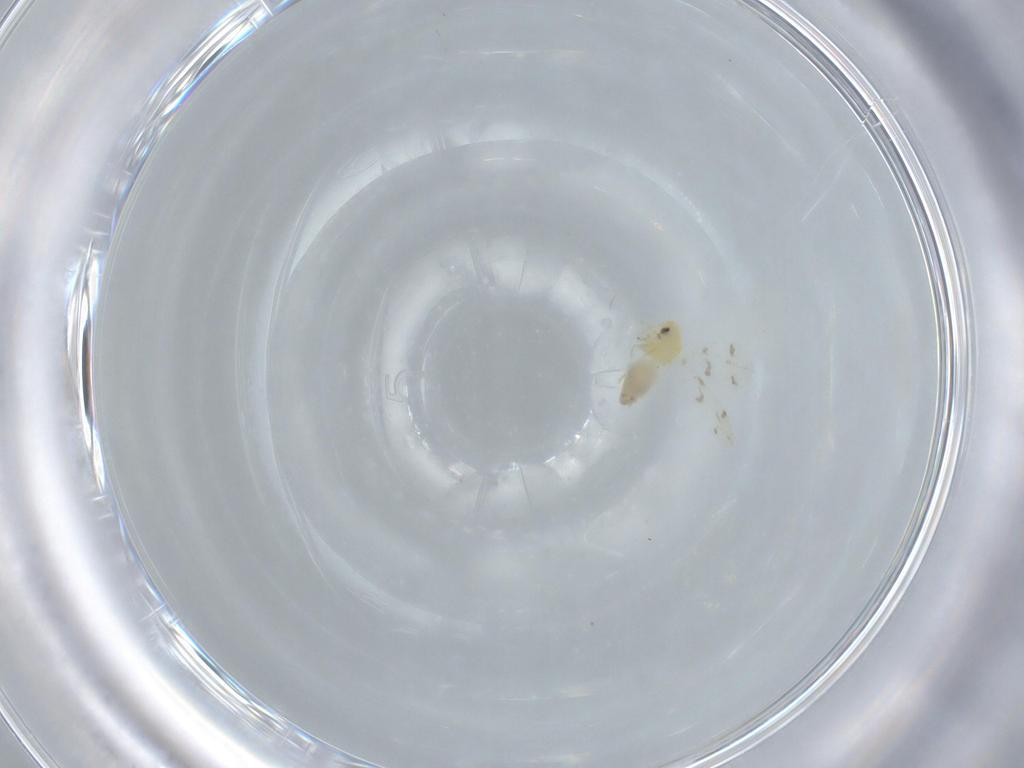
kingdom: Animalia
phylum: Arthropoda
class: Insecta
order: Hemiptera
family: Aleyrodidae
